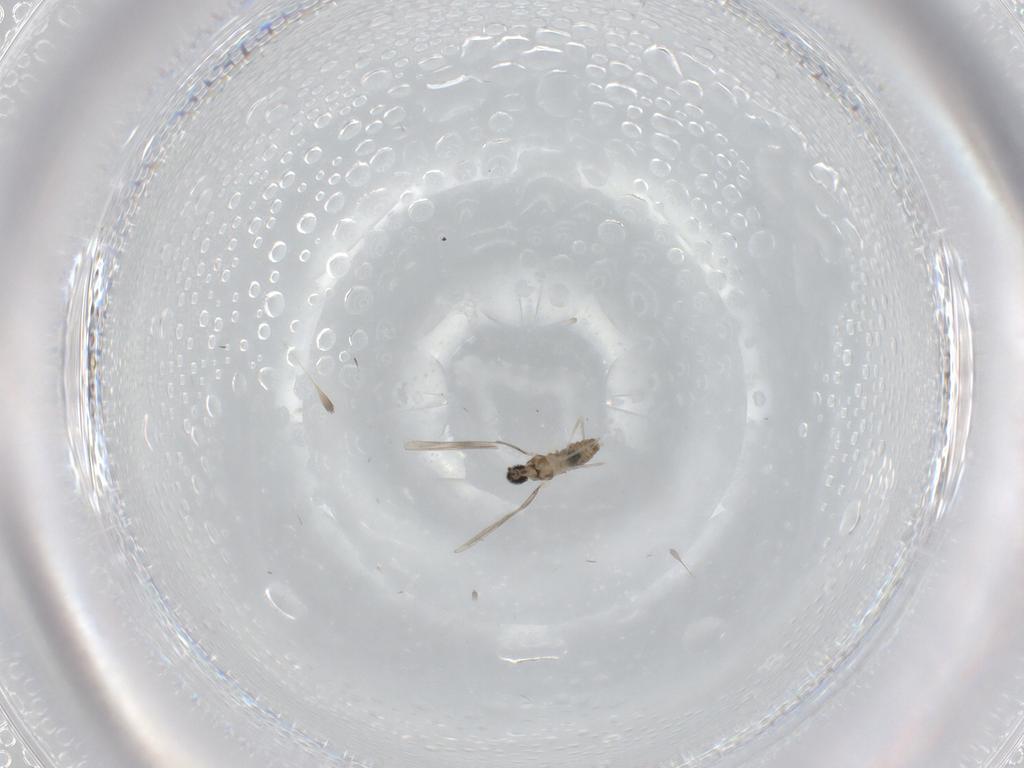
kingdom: Animalia
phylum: Arthropoda
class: Insecta
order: Diptera
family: Cecidomyiidae
